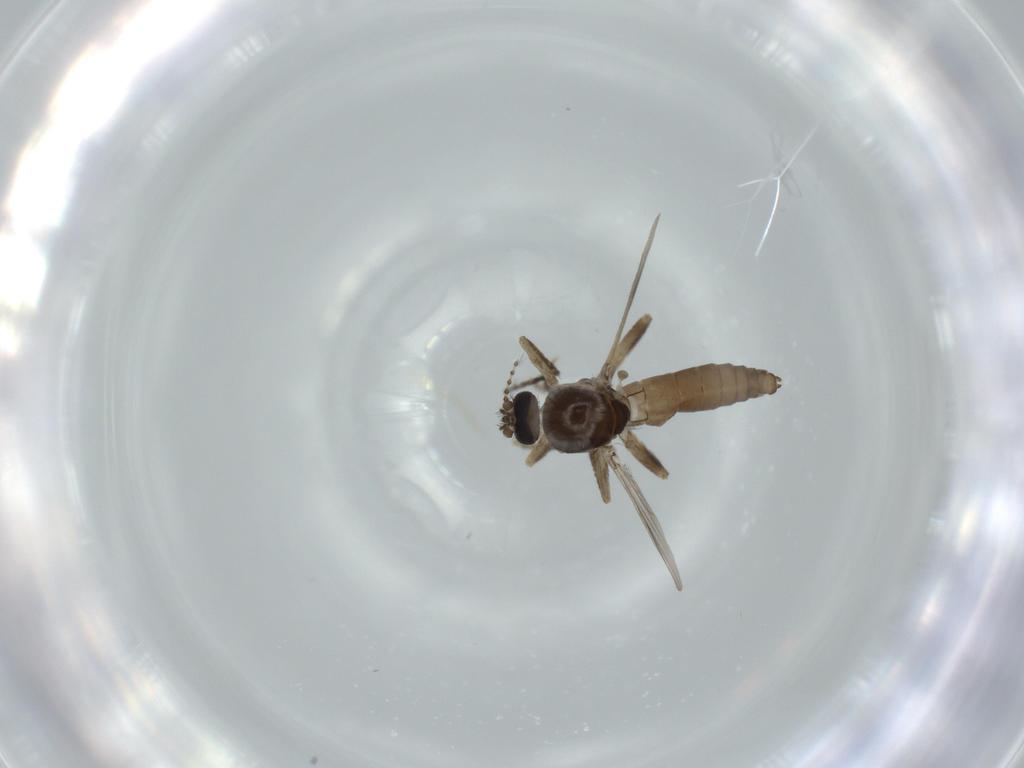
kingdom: Animalia
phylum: Arthropoda
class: Insecta
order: Diptera
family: Ceratopogonidae
